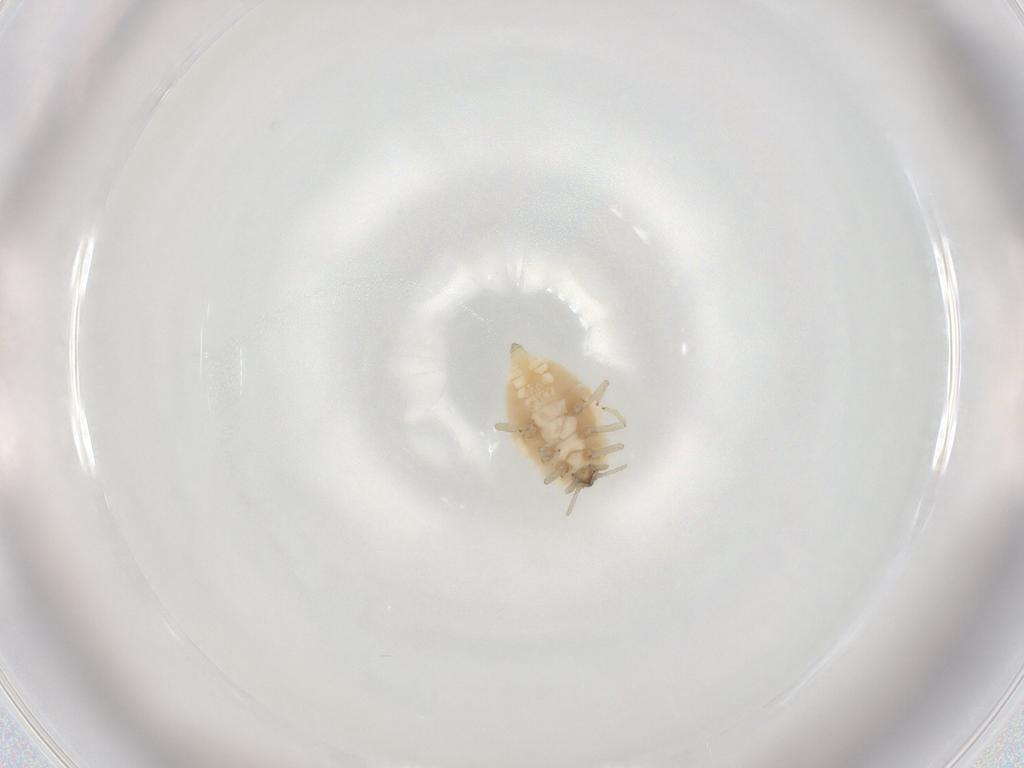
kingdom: Animalia
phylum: Arthropoda
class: Insecta
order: Neuroptera
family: Coniopterygidae
